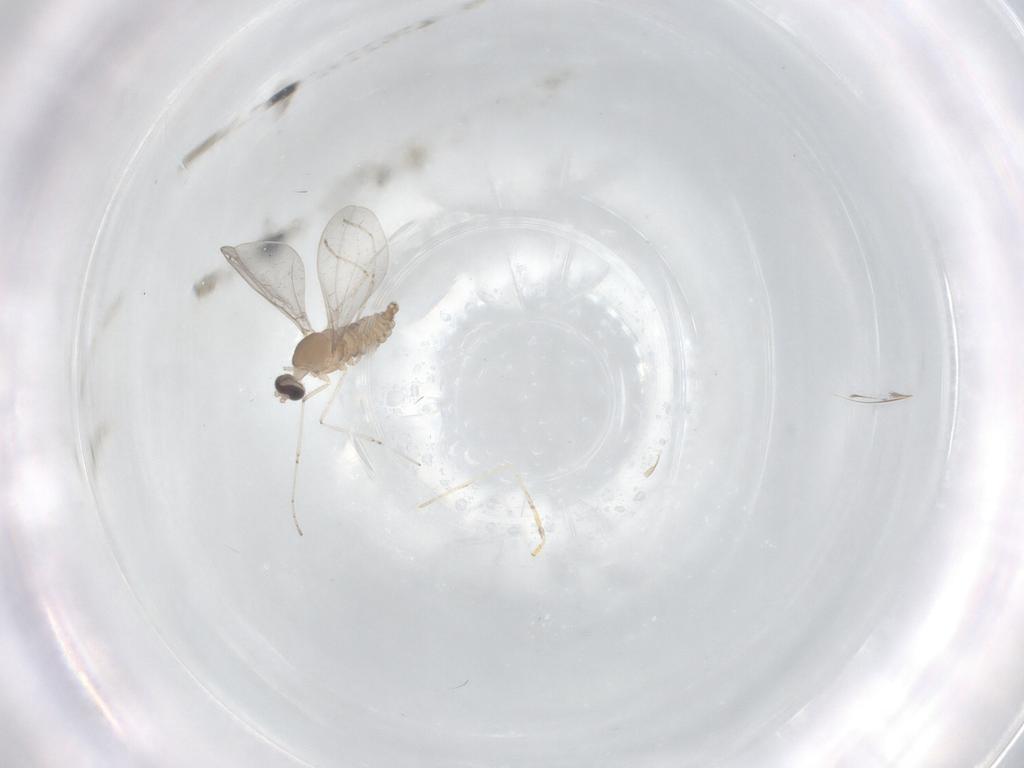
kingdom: Animalia
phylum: Arthropoda
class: Insecta
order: Diptera
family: Cecidomyiidae
